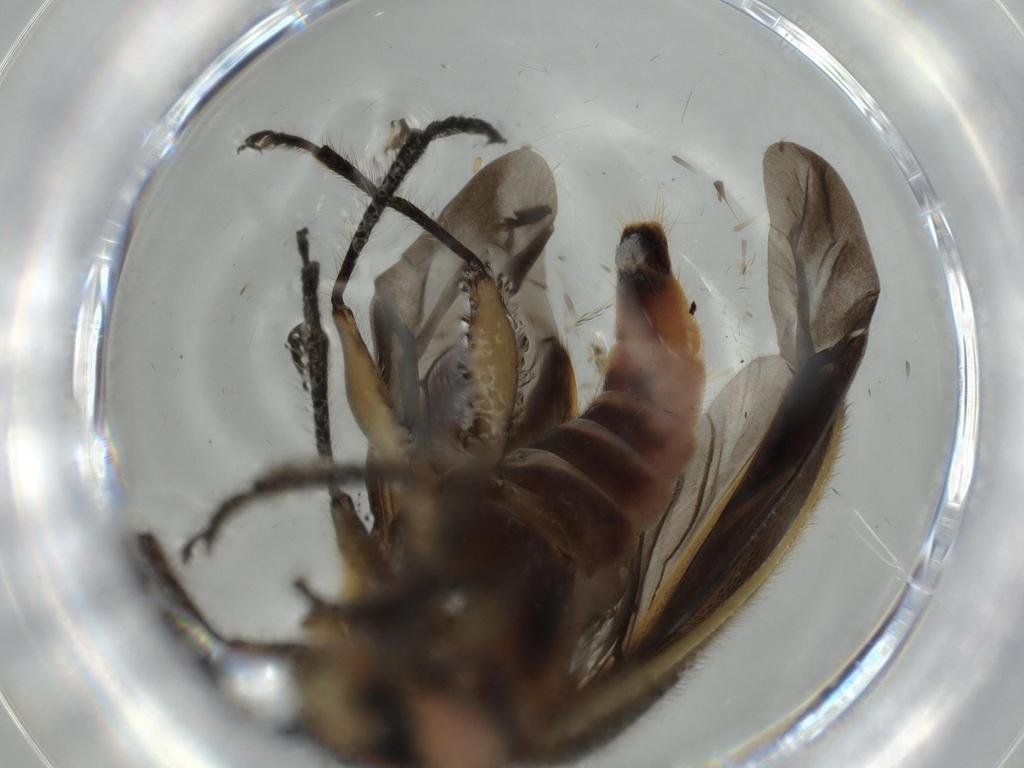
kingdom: Animalia
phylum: Arthropoda
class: Insecta
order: Coleoptera
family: Cleridae
